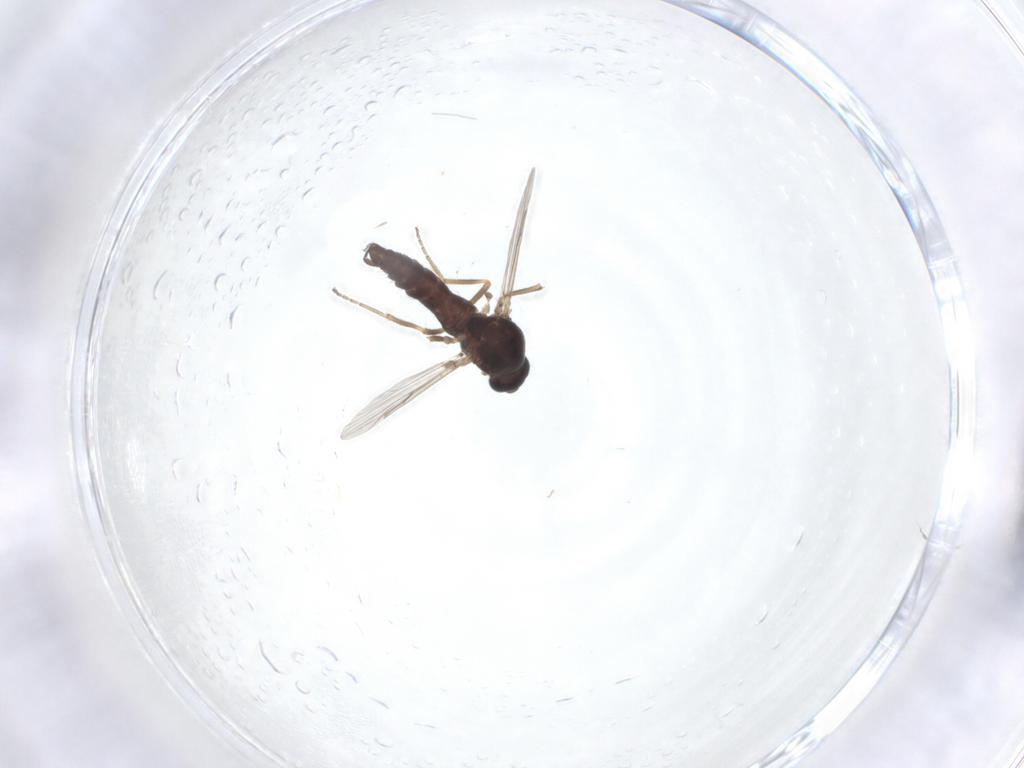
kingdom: Animalia
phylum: Arthropoda
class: Insecta
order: Diptera
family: Ceratopogonidae
